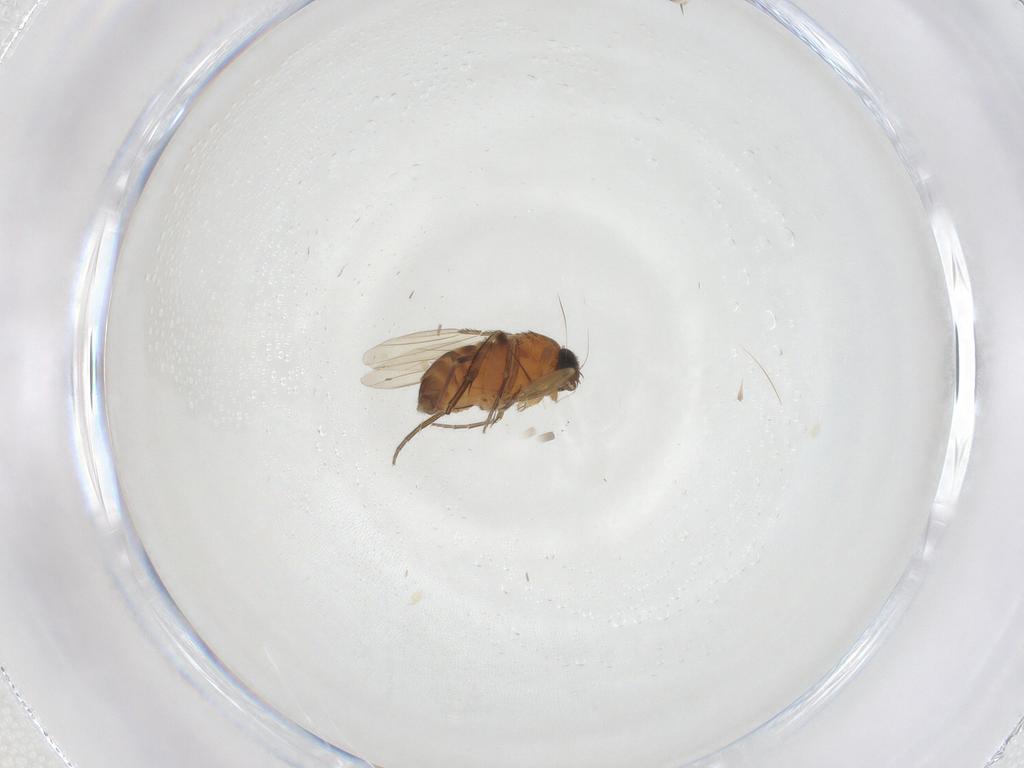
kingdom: Animalia
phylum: Arthropoda
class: Insecta
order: Diptera
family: Phoridae
